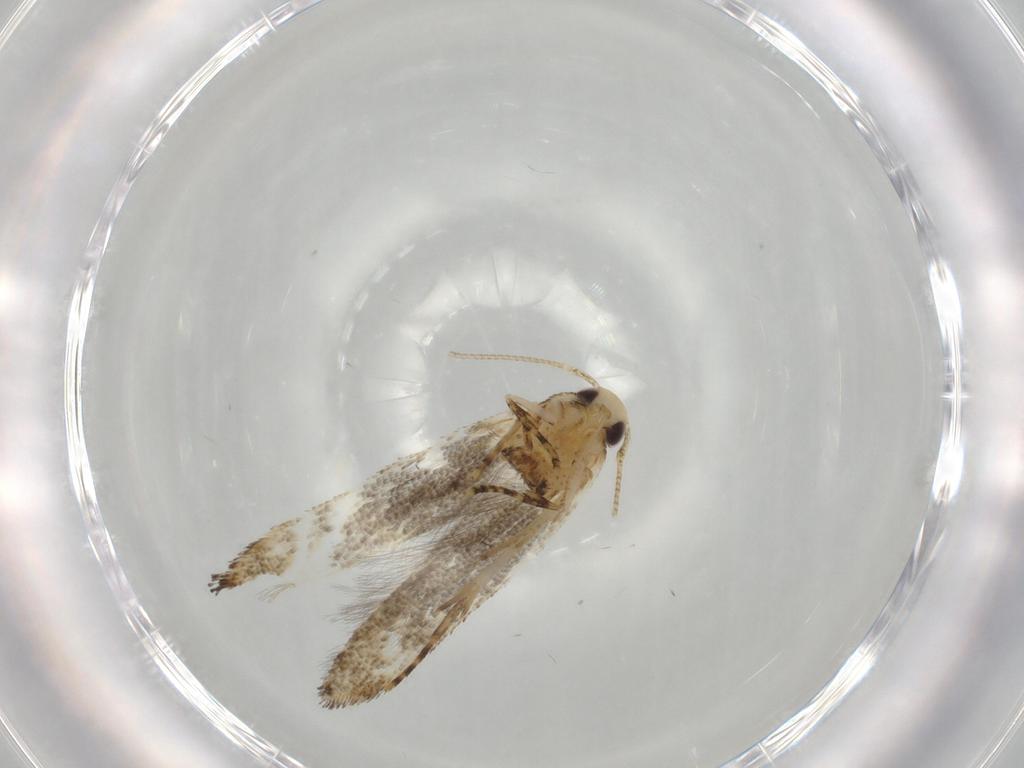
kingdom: Animalia
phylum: Arthropoda
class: Insecta
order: Lepidoptera
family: Cosmopterigidae
